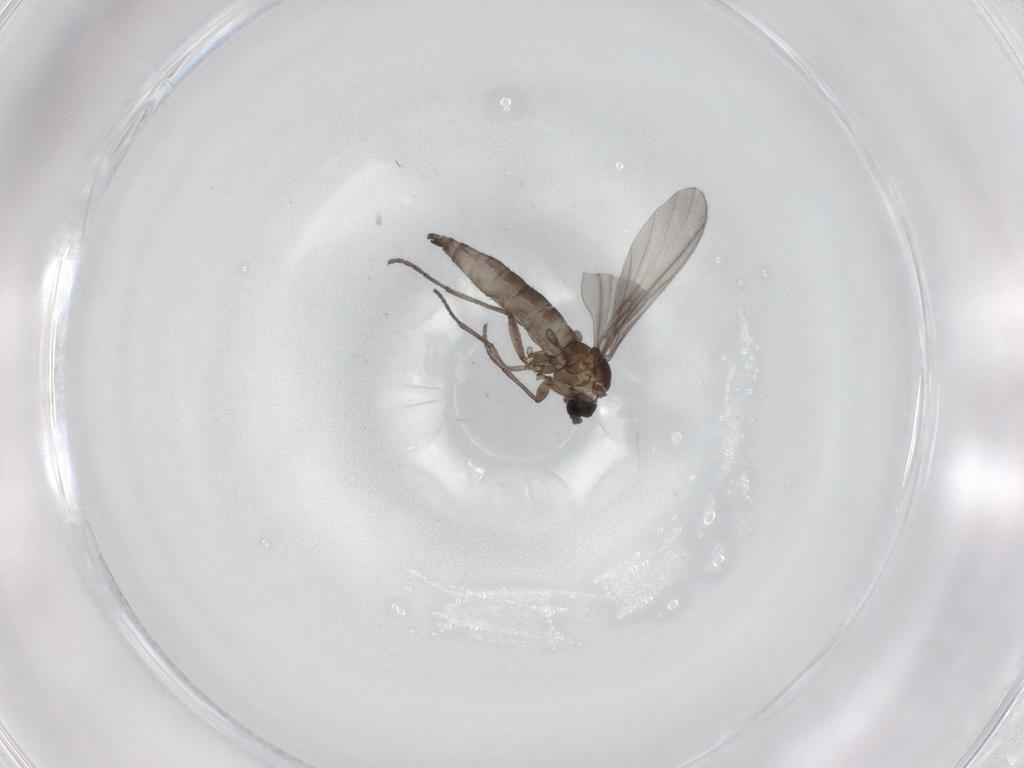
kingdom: Animalia
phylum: Arthropoda
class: Insecta
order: Diptera
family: Sciaridae
